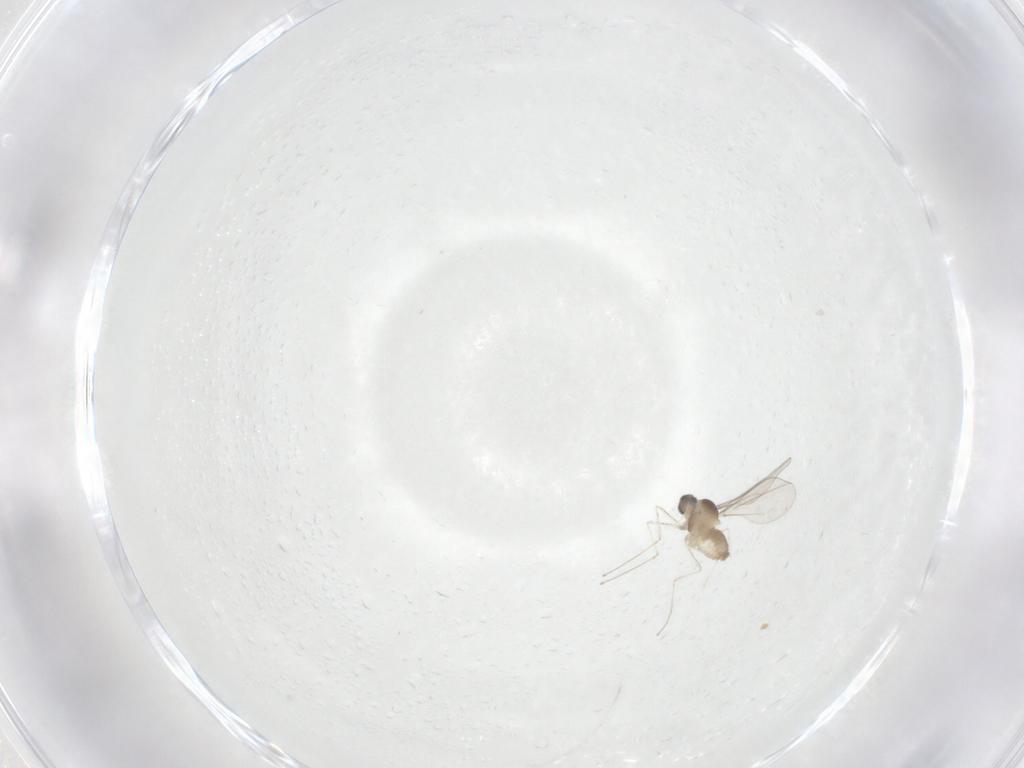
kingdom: Animalia
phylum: Arthropoda
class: Insecta
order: Diptera
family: Cecidomyiidae
